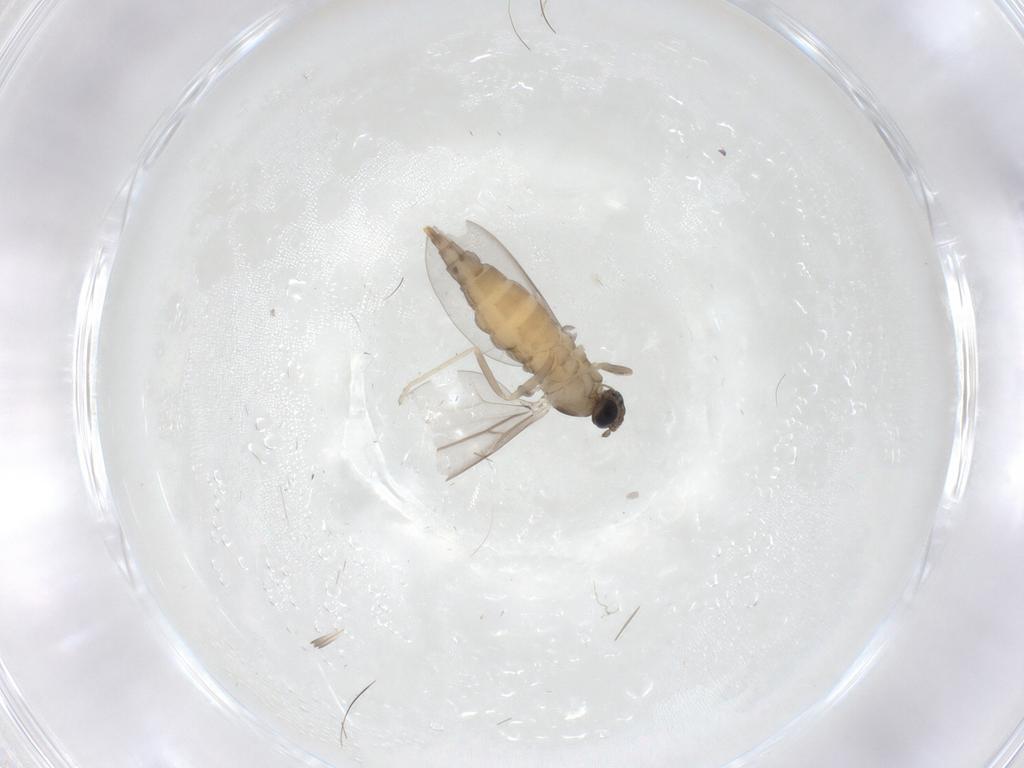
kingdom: Animalia
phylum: Arthropoda
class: Insecta
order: Diptera
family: Cecidomyiidae
